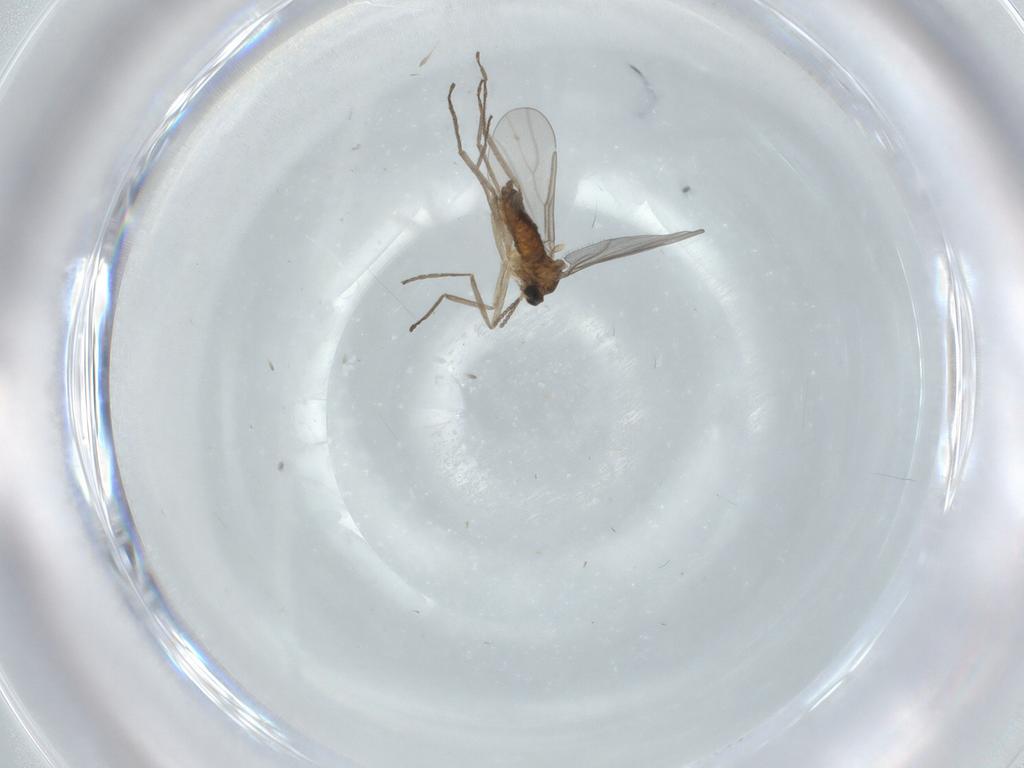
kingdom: Animalia
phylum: Arthropoda
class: Insecta
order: Diptera
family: Cecidomyiidae
